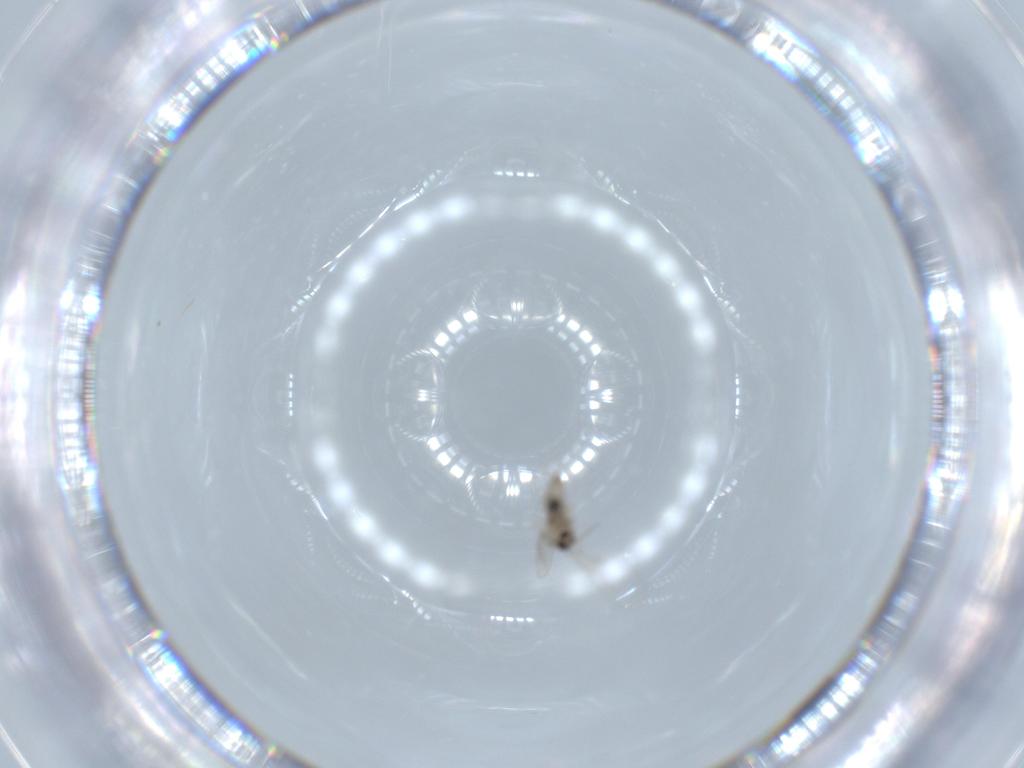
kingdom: Animalia
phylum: Arthropoda
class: Insecta
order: Diptera
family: Cecidomyiidae
